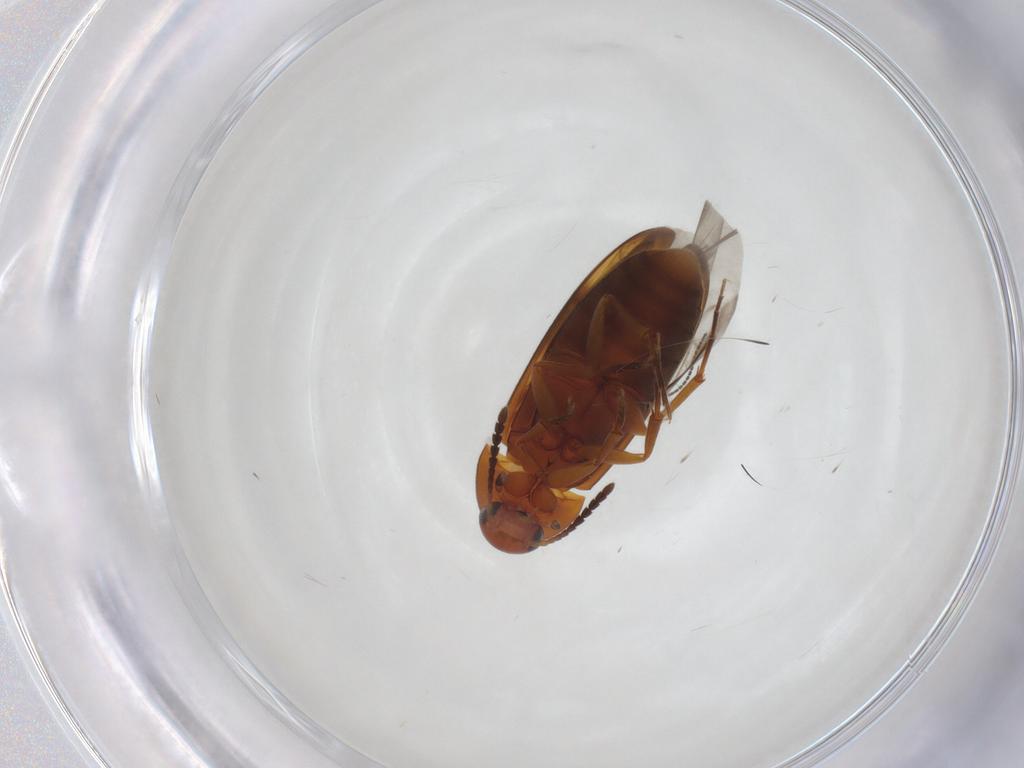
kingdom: Animalia
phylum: Arthropoda
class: Insecta
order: Coleoptera
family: Scraptiidae
